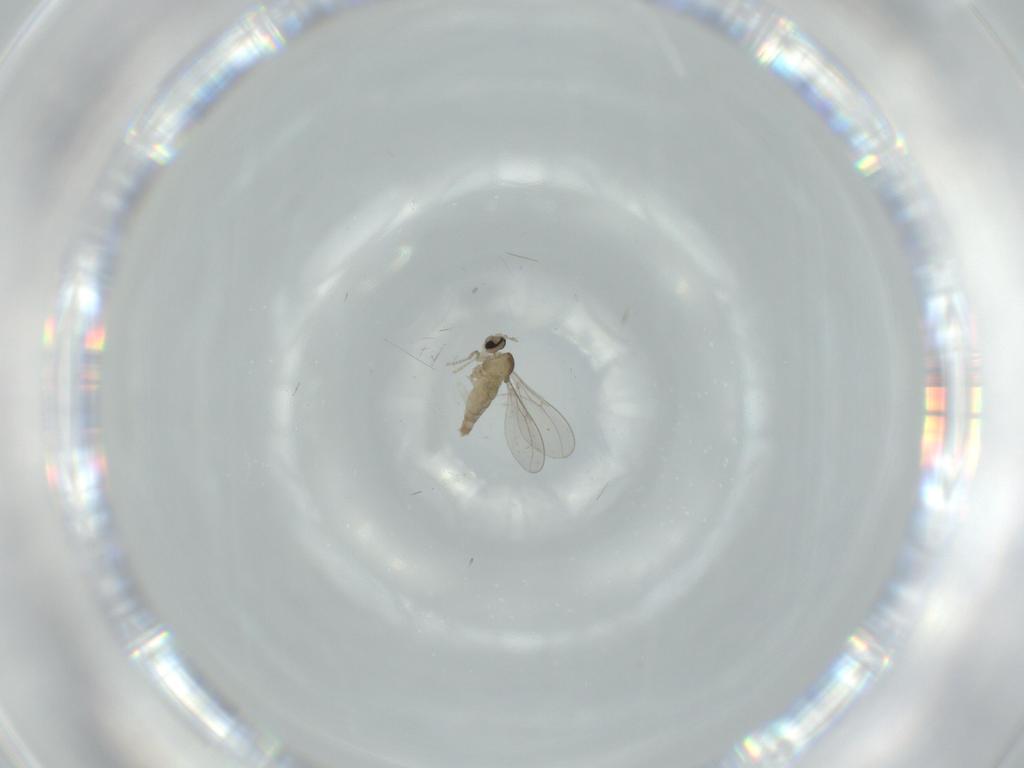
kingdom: Animalia
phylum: Arthropoda
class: Insecta
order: Diptera
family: Cecidomyiidae
